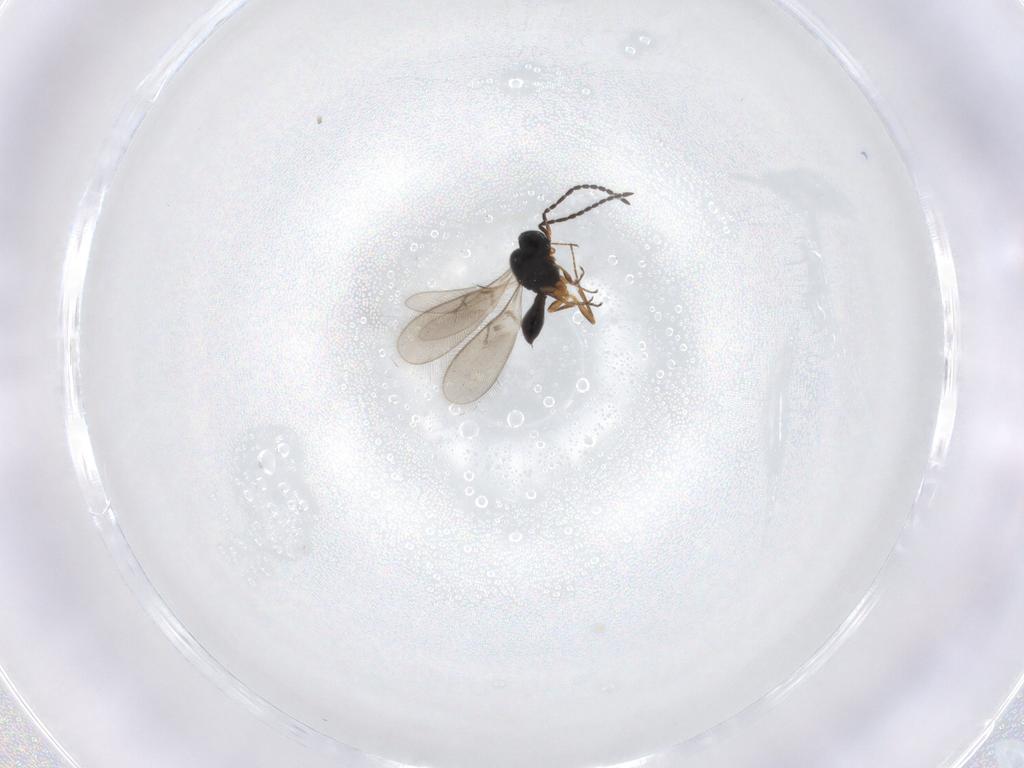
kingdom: Animalia
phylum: Arthropoda
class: Insecta
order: Hymenoptera
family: Scelionidae
